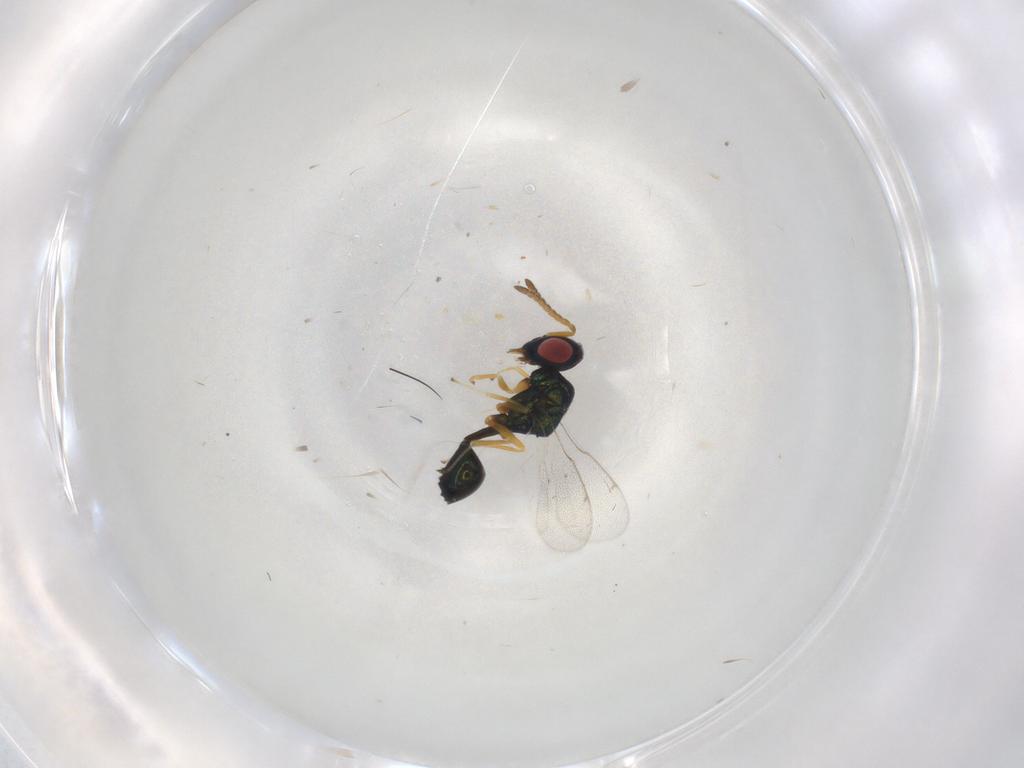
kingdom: Animalia
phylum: Arthropoda
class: Insecta
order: Hymenoptera
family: Eucharitidae
